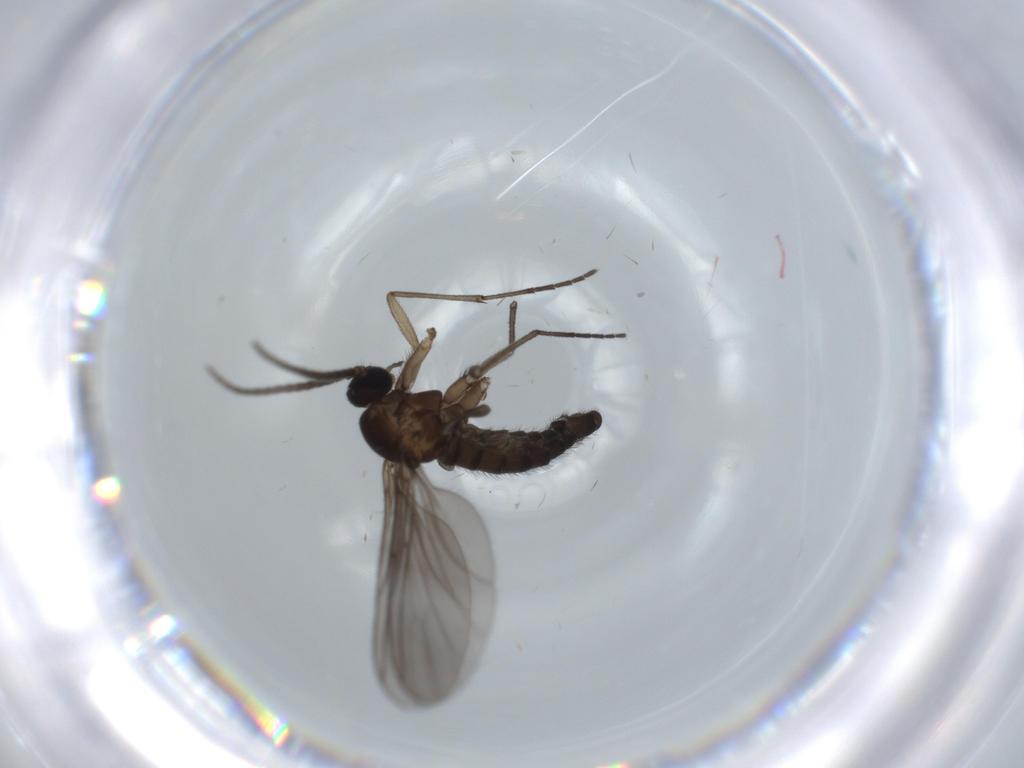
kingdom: Animalia
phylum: Arthropoda
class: Insecta
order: Diptera
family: Sciaridae
